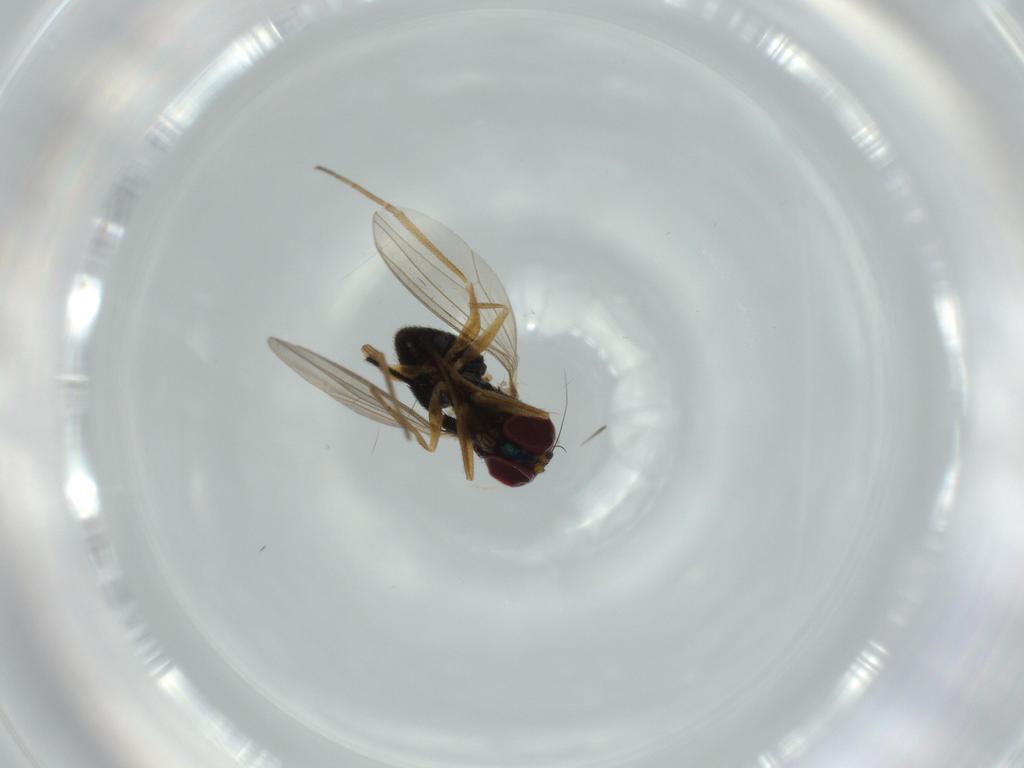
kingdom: Animalia
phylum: Arthropoda
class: Insecta
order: Diptera
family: Dolichopodidae
